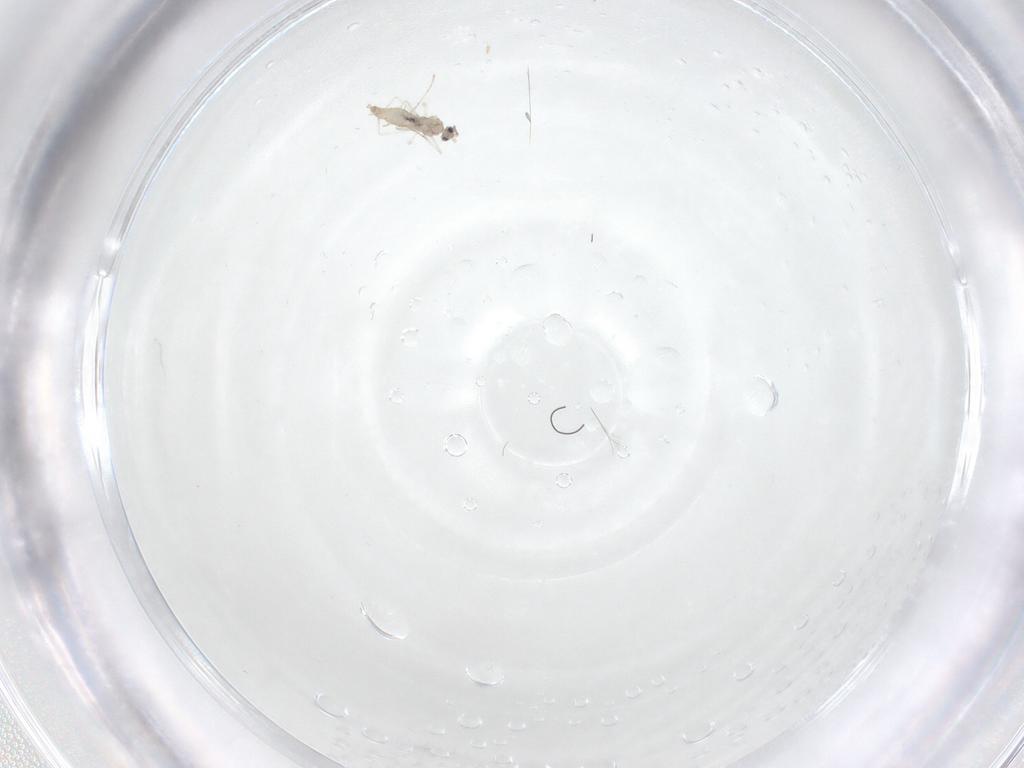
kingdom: Animalia
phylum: Arthropoda
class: Insecta
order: Diptera
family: Cecidomyiidae
